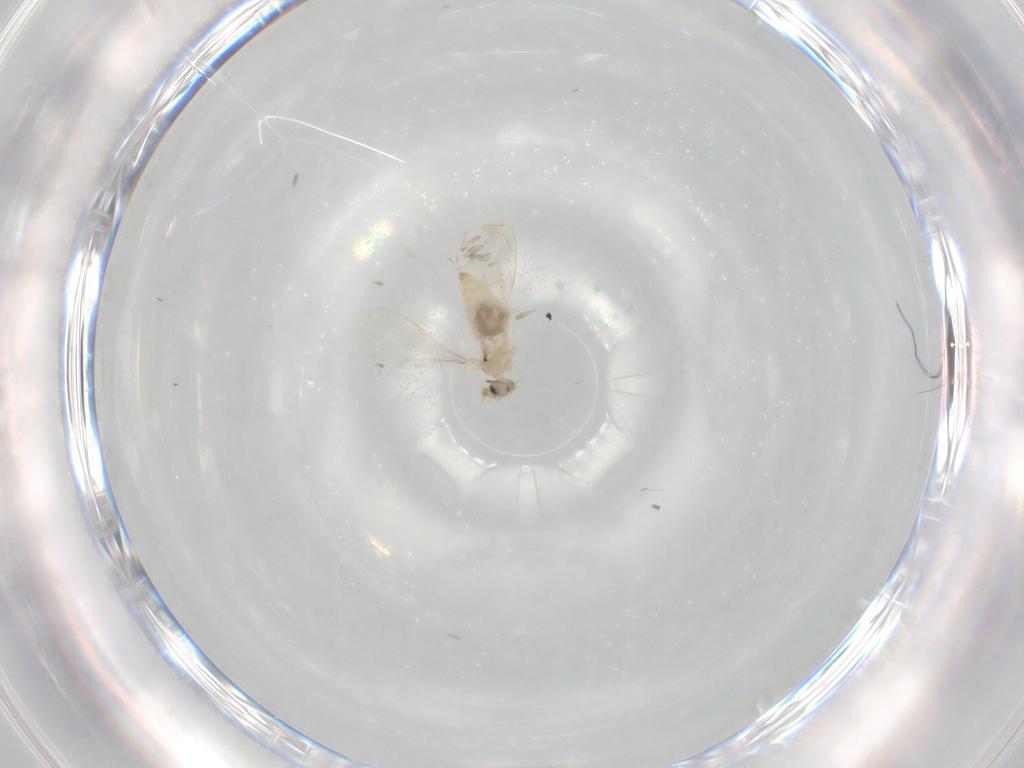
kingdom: Animalia
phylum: Arthropoda
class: Insecta
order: Diptera
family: Cecidomyiidae
